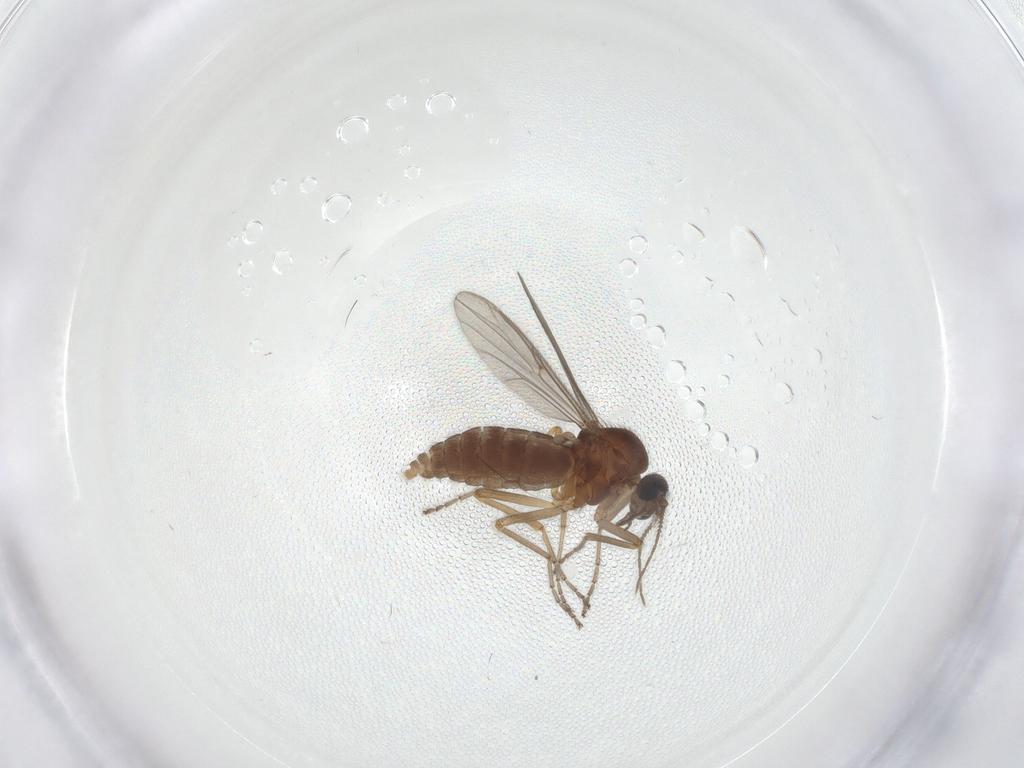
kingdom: Animalia
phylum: Arthropoda
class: Insecta
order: Diptera
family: Ceratopogonidae
